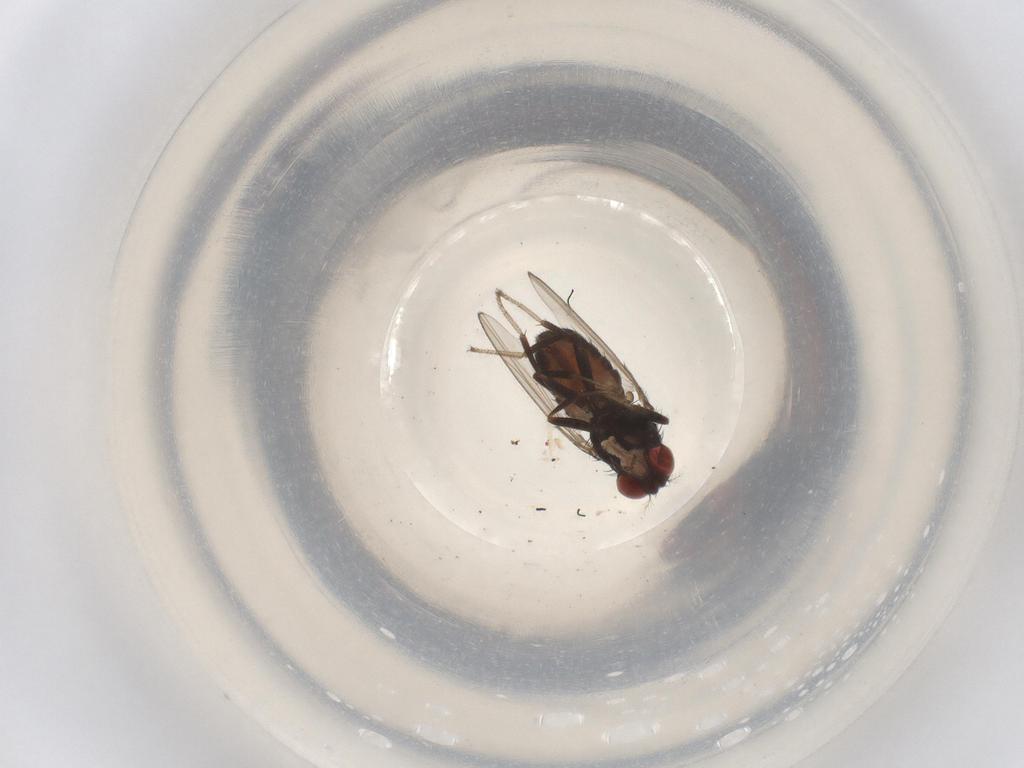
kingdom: Animalia
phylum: Arthropoda
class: Insecta
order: Diptera
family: Drosophilidae
